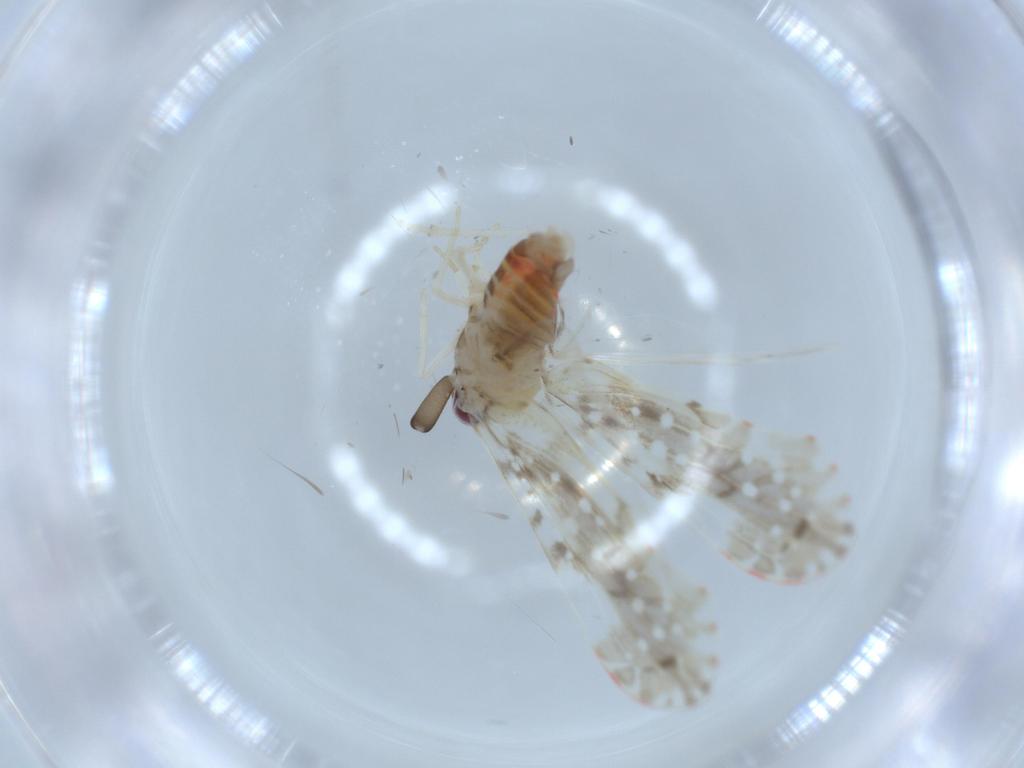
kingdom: Animalia
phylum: Arthropoda
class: Insecta
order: Hemiptera
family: Derbidae
